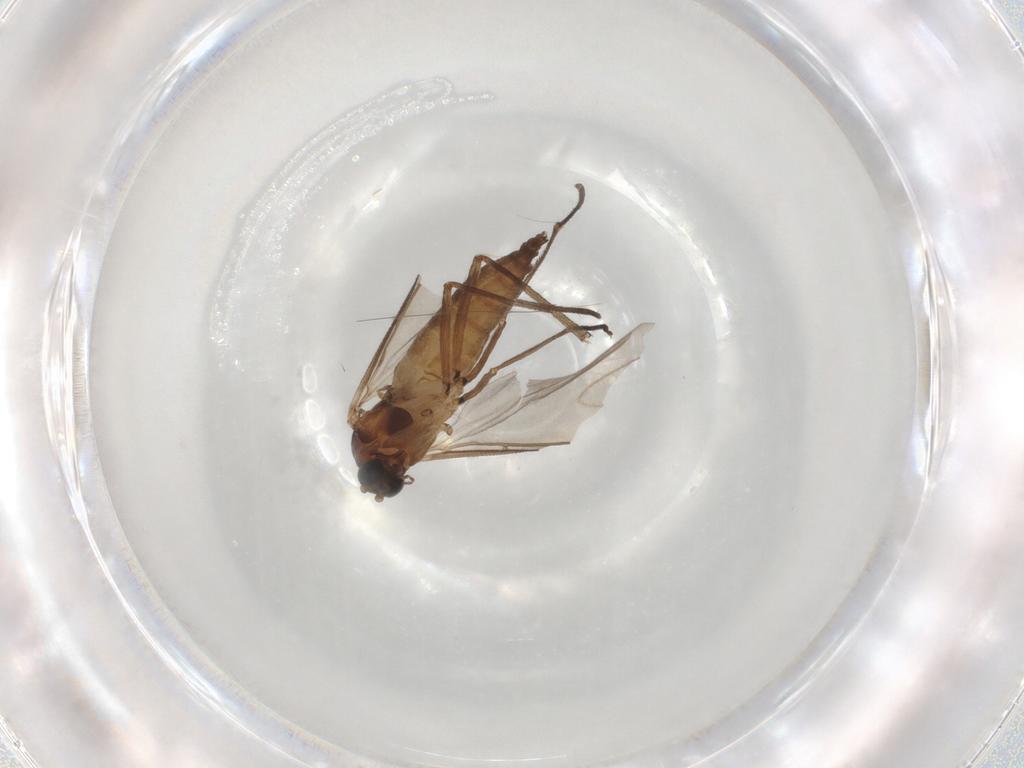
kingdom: Animalia
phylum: Arthropoda
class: Insecta
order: Diptera
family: Sciaridae
